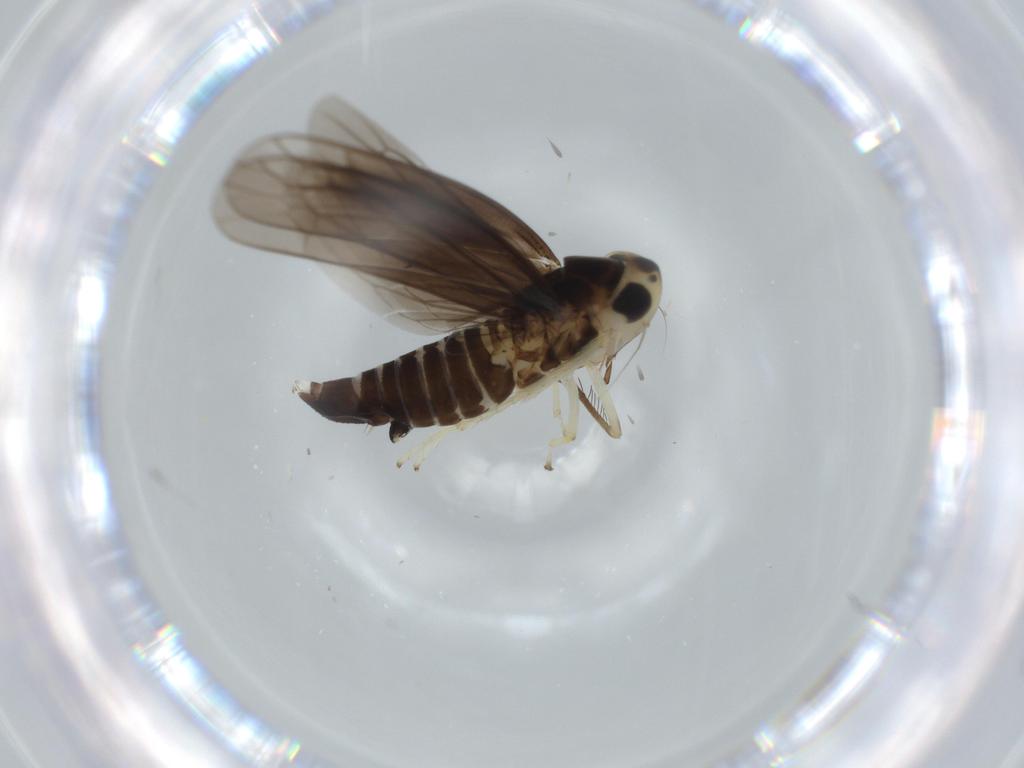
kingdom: Animalia
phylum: Arthropoda
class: Insecta
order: Hemiptera
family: Cicadellidae
